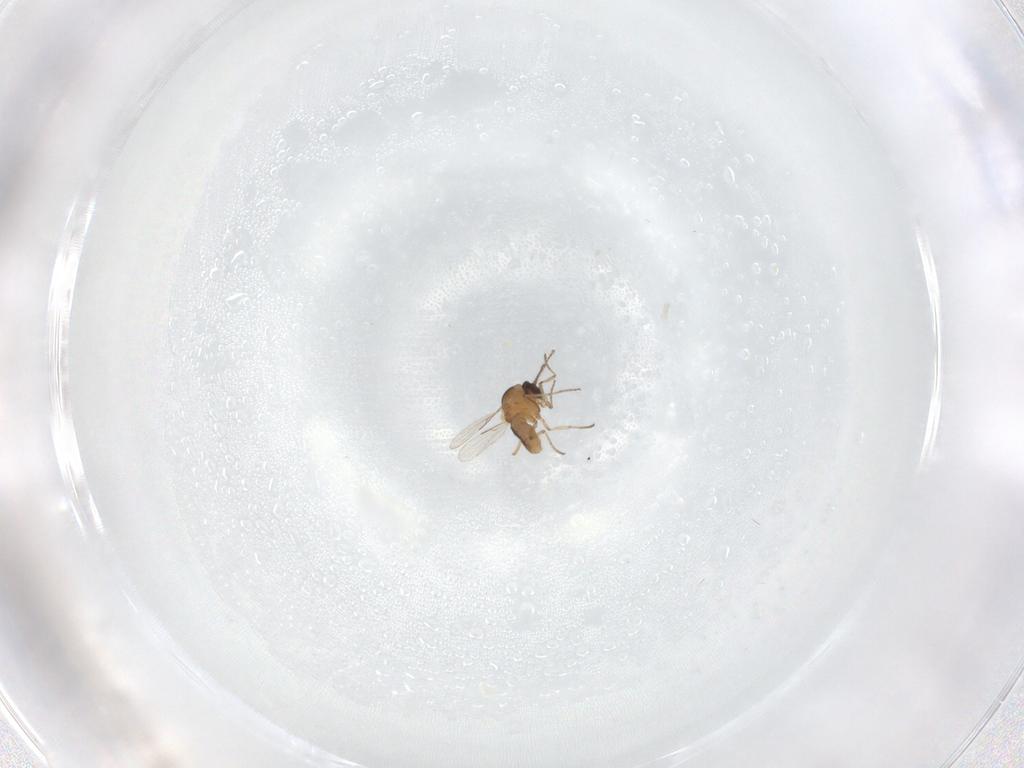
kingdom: Animalia
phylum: Arthropoda
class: Insecta
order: Diptera
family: Ceratopogonidae
